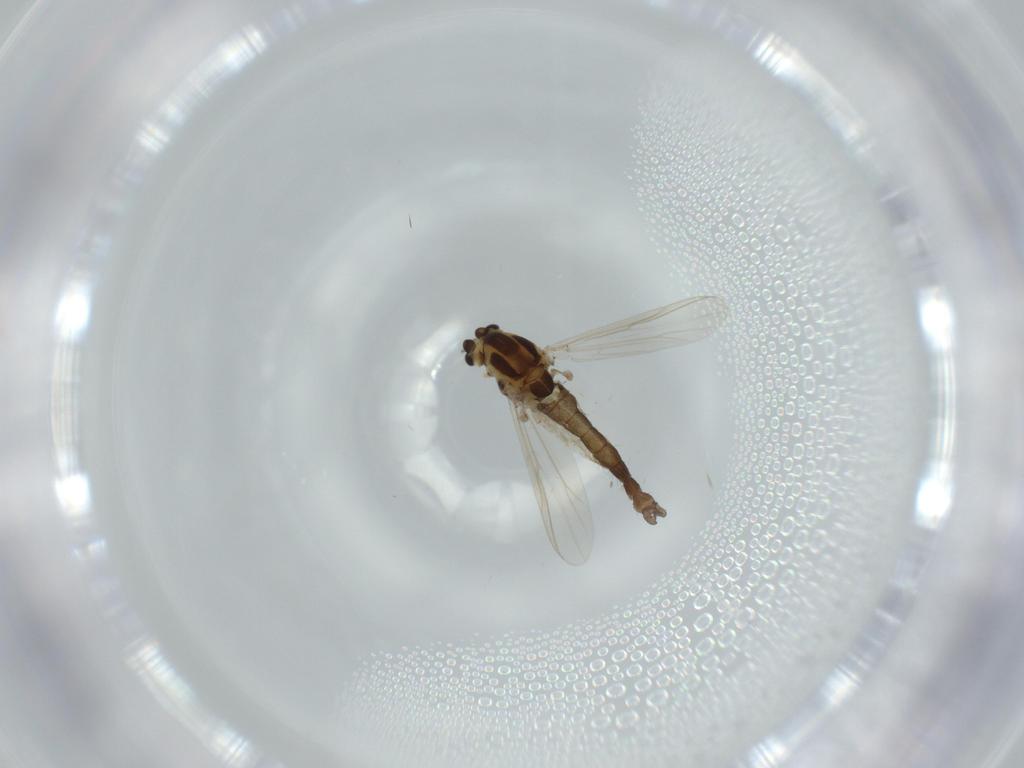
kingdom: Animalia
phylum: Arthropoda
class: Insecta
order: Diptera
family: Chironomidae
